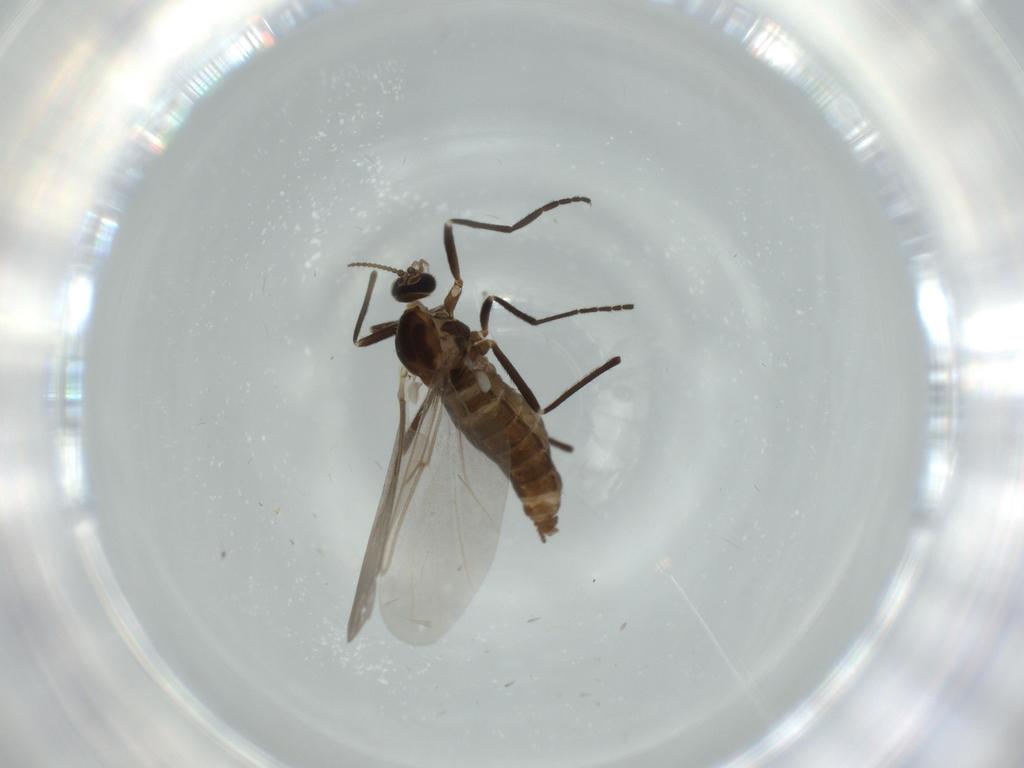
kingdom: Animalia
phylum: Arthropoda
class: Insecta
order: Diptera
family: Cecidomyiidae
